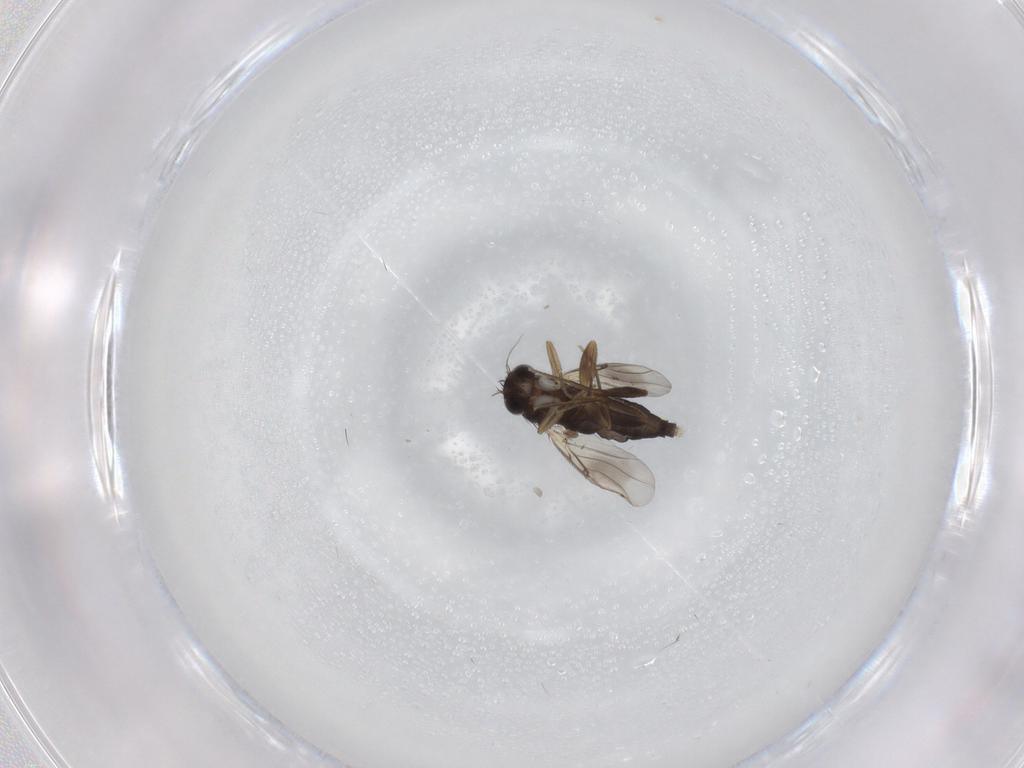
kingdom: Animalia
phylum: Arthropoda
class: Insecta
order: Diptera
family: Phoridae
